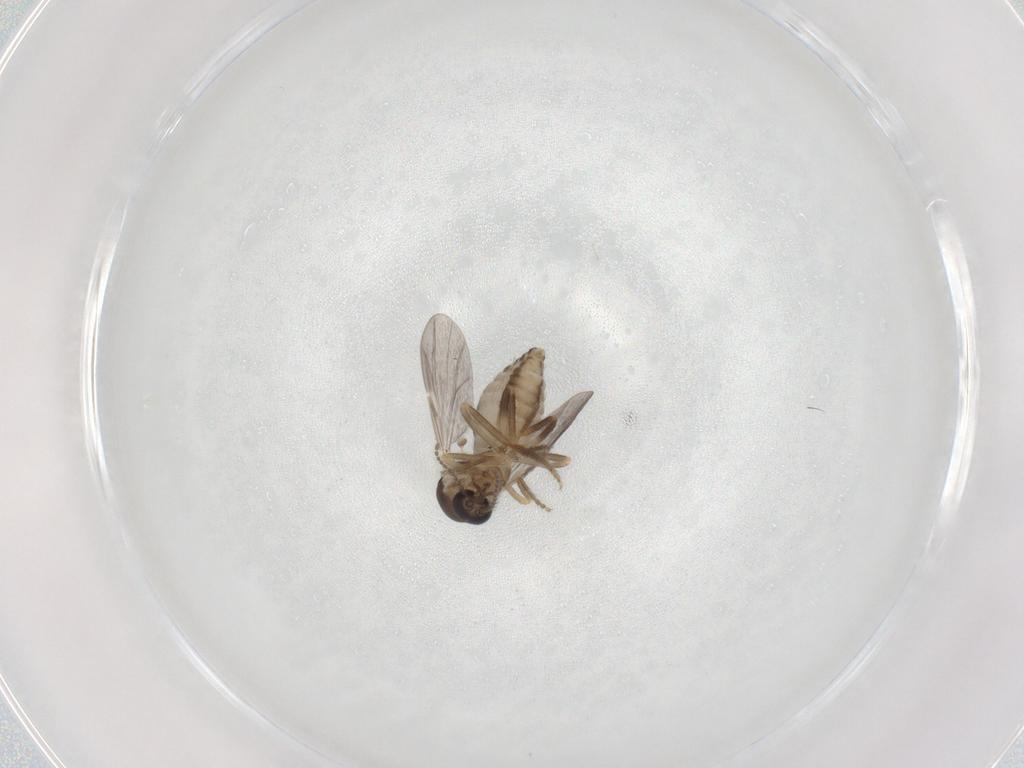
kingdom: Animalia
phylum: Arthropoda
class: Insecta
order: Diptera
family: Ceratopogonidae
